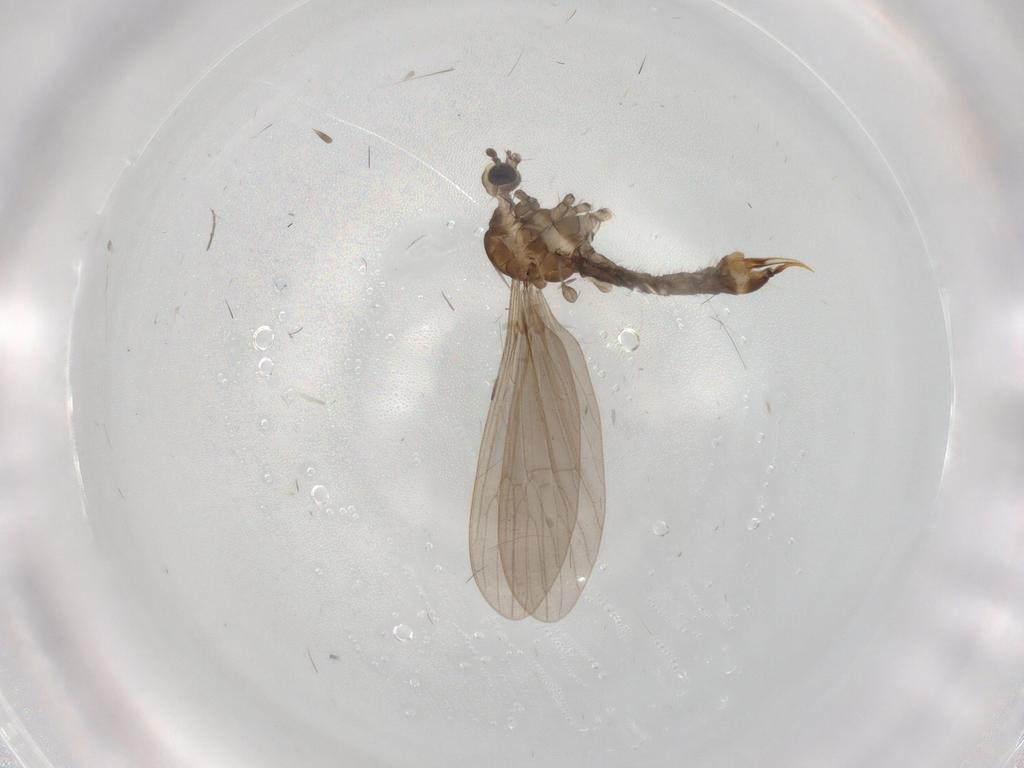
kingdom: Animalia
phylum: Arthropoda
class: Insecta
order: Diptera
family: Limoniidae
